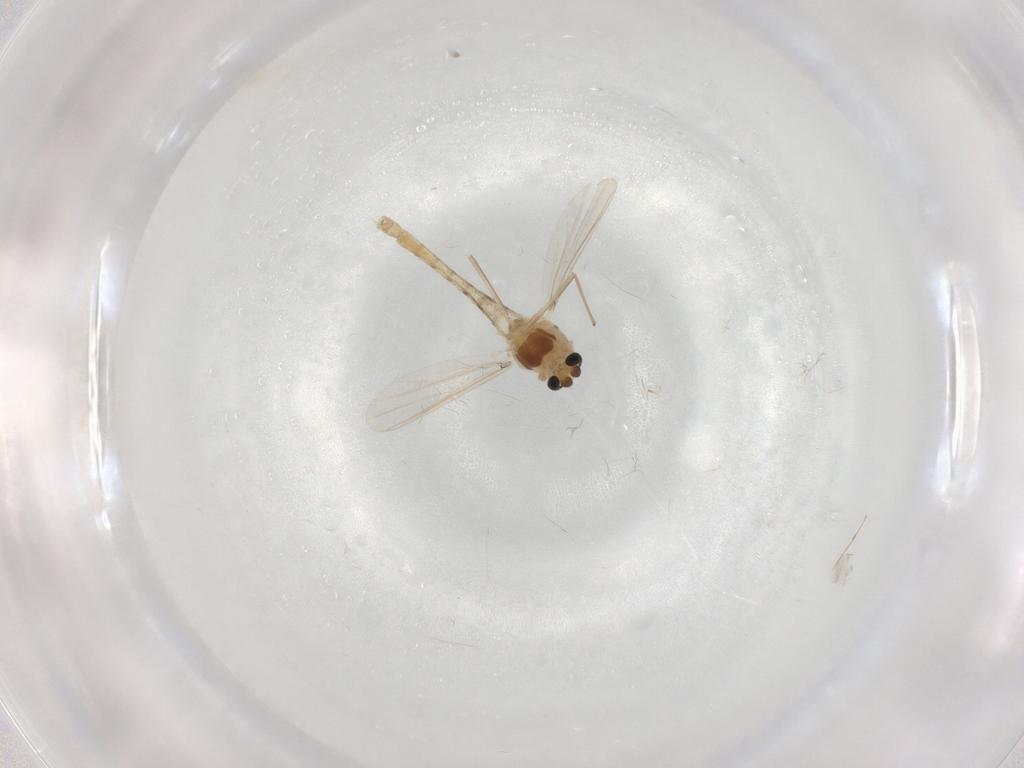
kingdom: Animalia
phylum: Arthropoda
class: Insecta
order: Diptera
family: Chironomidae
